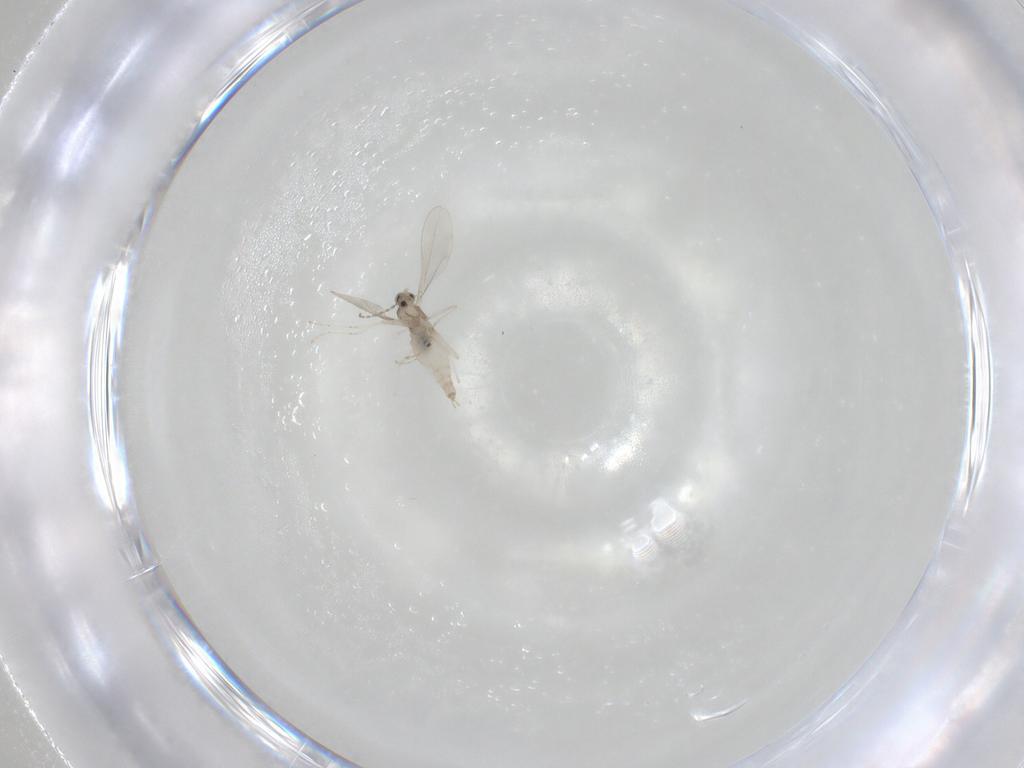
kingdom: Animalia
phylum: Arthropoda
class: Insecta
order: Diptera
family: Cecidomyiidae
